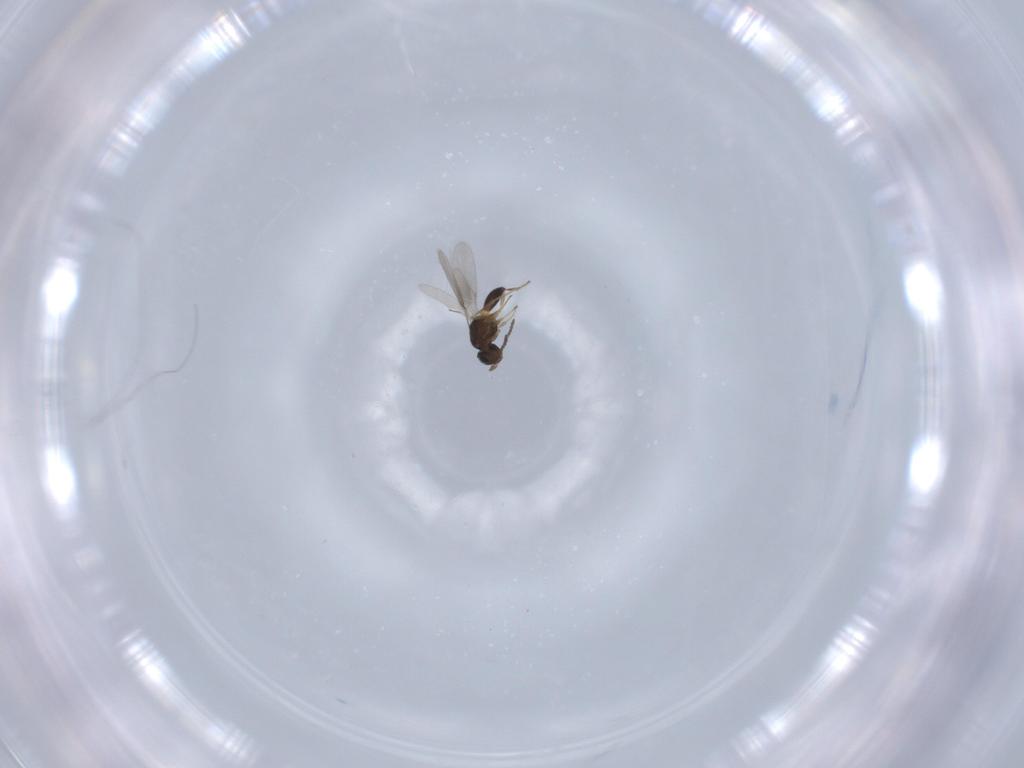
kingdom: Animalia
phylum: Arthropoda
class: Insecta
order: Hymenoptera
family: Scelionidae
